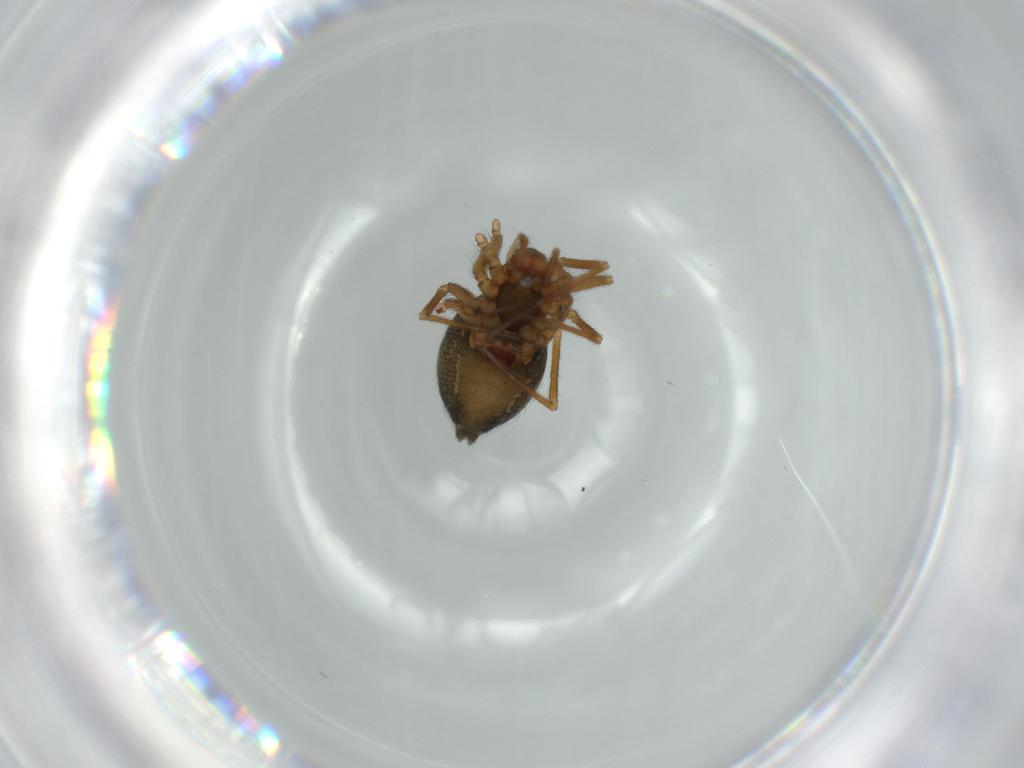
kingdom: Animalia
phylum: Arthropoda
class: Arachnida
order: Araneae
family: Linyphiidae
